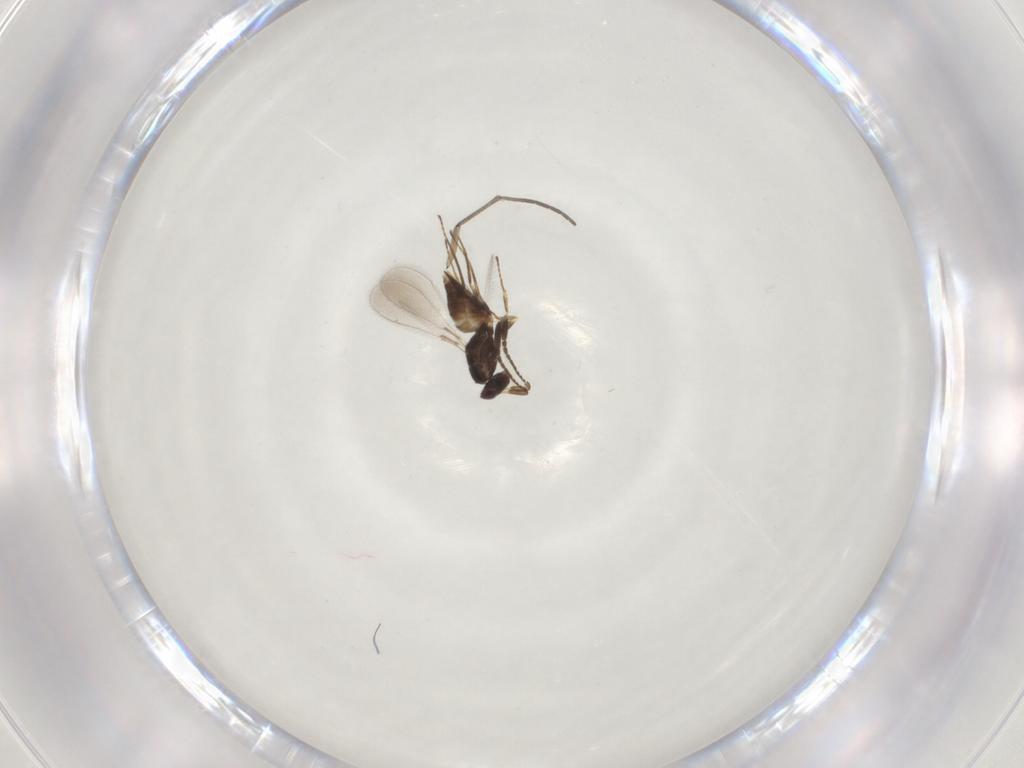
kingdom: Animalia
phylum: Arthropoda
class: Insecta
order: Hymenoptera
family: Mymaridae
